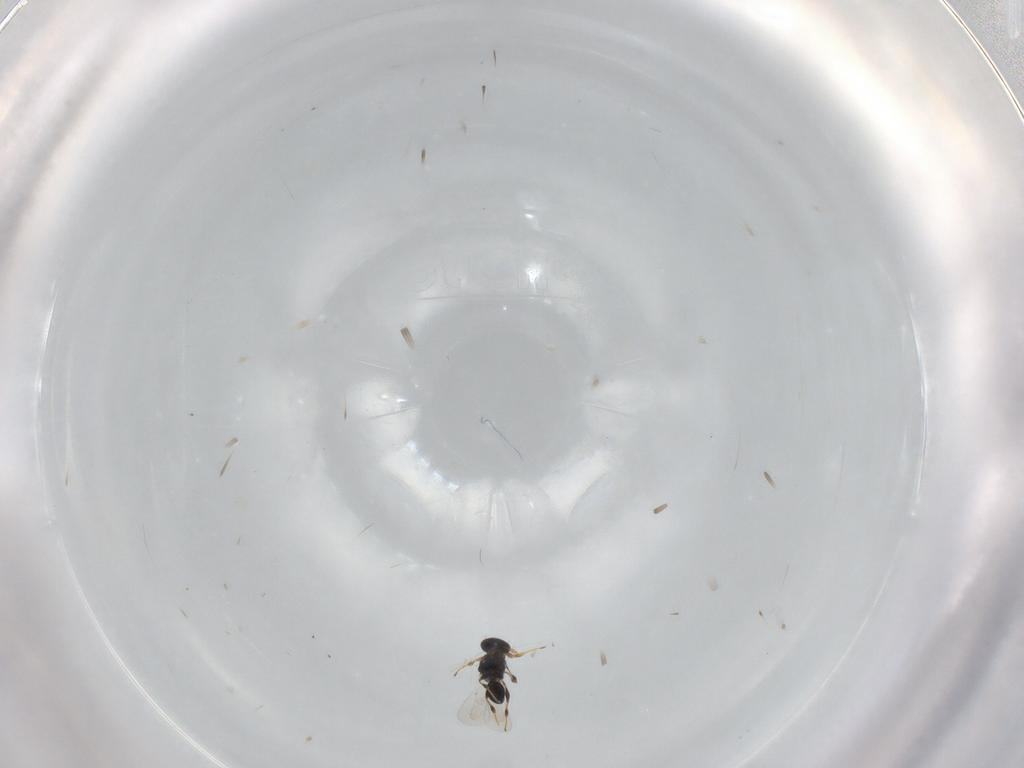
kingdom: Animalia
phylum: Arthropoda
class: Insecta
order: Hymenoptera
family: Platygastridae
